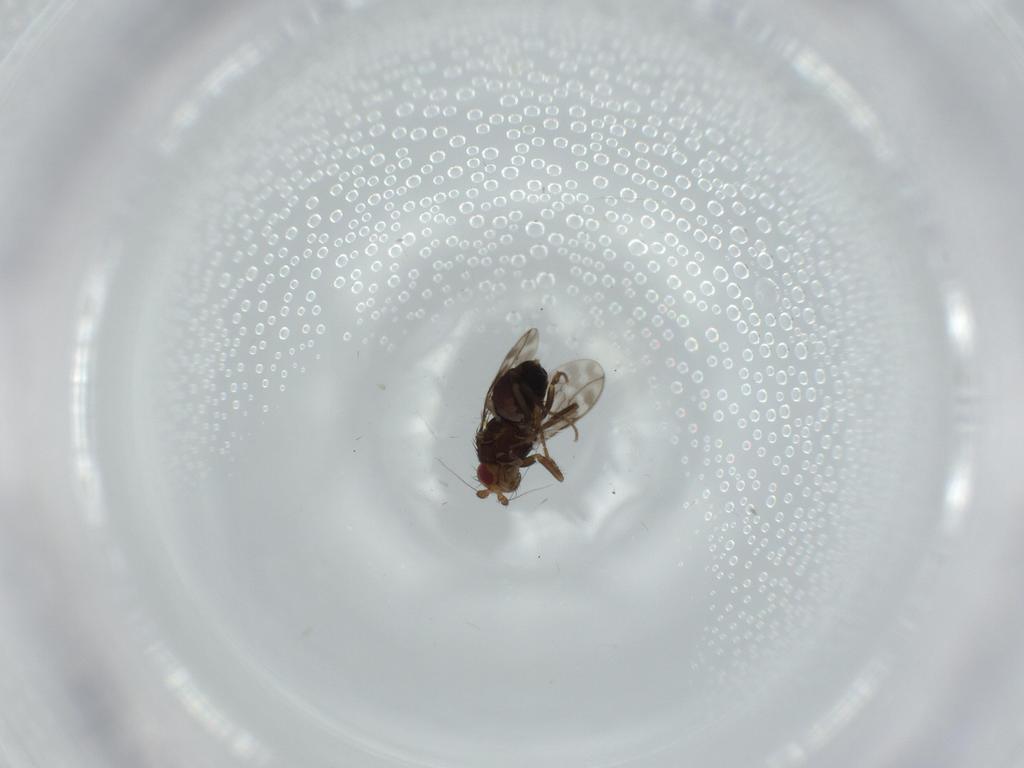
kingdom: Animalia
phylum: Arthropoda
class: Insecta
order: Diptera
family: Sphaeroceridae
